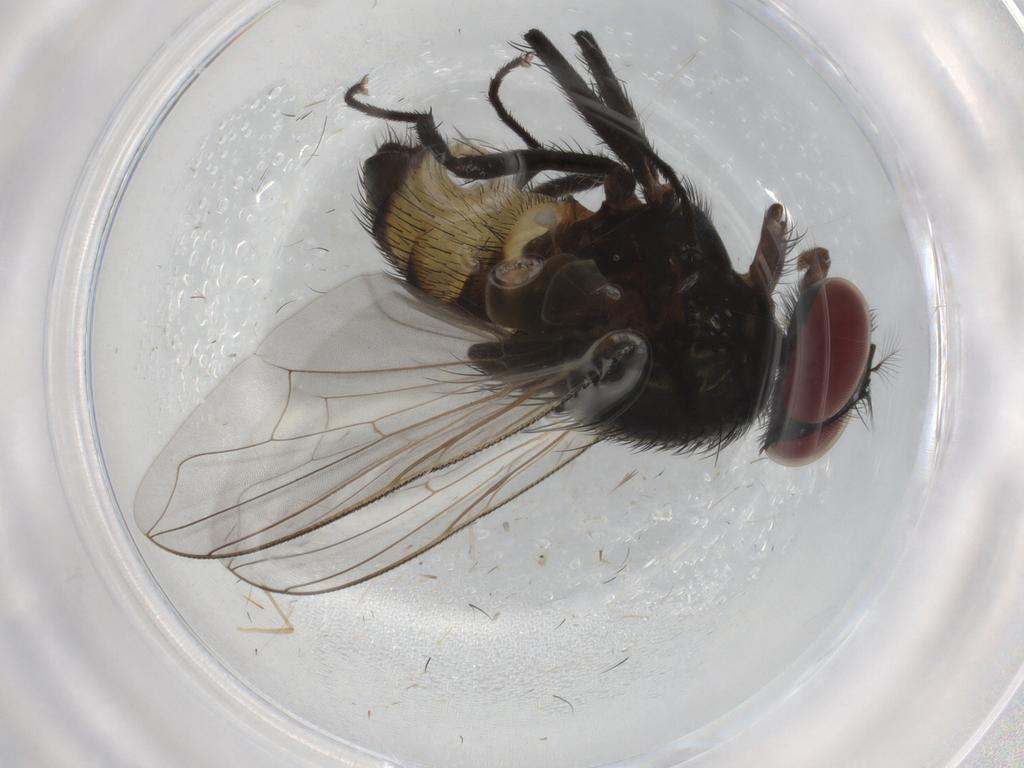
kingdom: Animalia
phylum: Arthropoda
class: Insecta
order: Diptera
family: Muscidae
